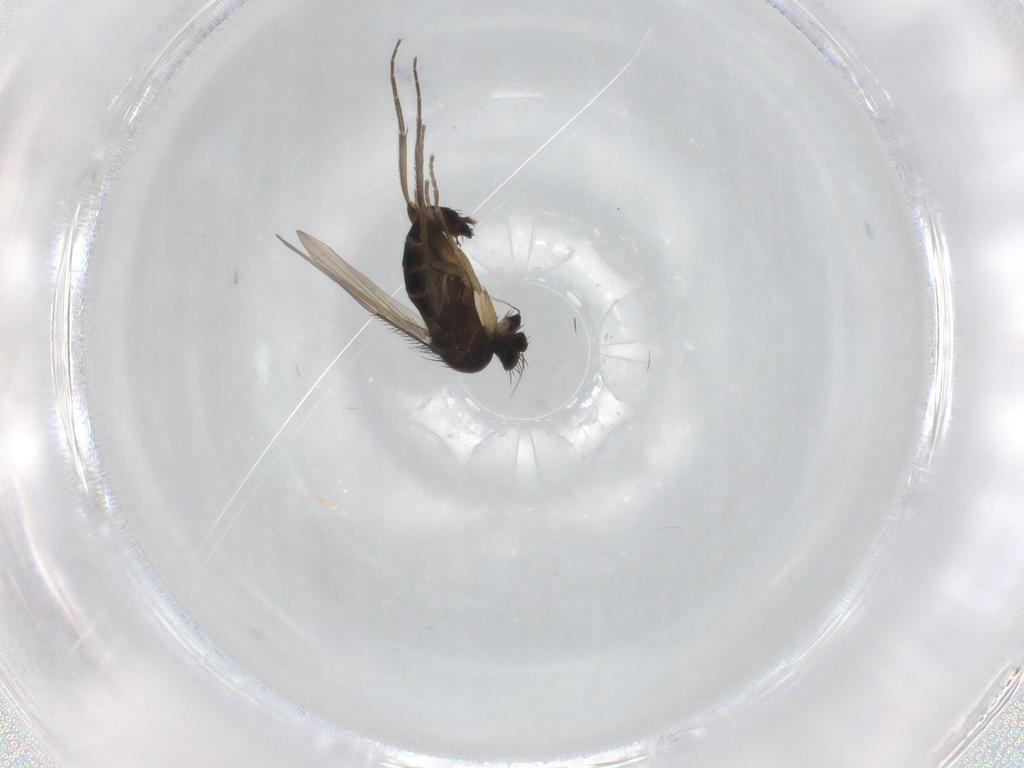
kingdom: Animalia
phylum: Arthropoda
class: Insecta
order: Diptera
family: Phoridae
